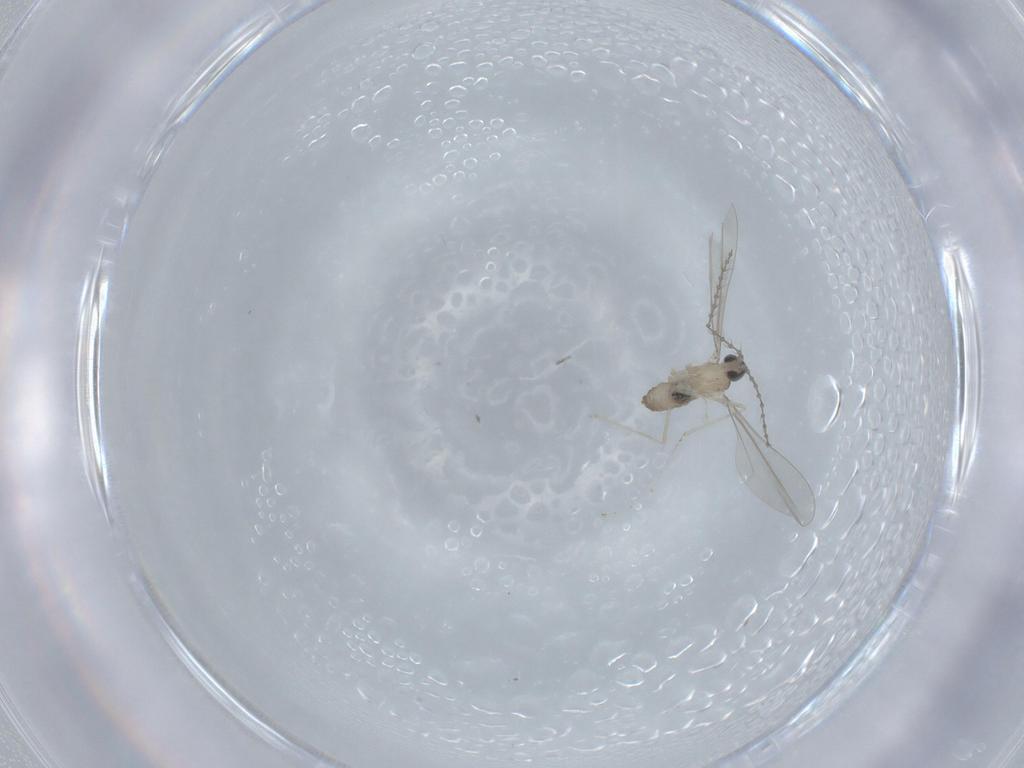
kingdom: Animalia
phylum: Arthropoda
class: Insecta
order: Diptera
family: Cecidomyiidae
